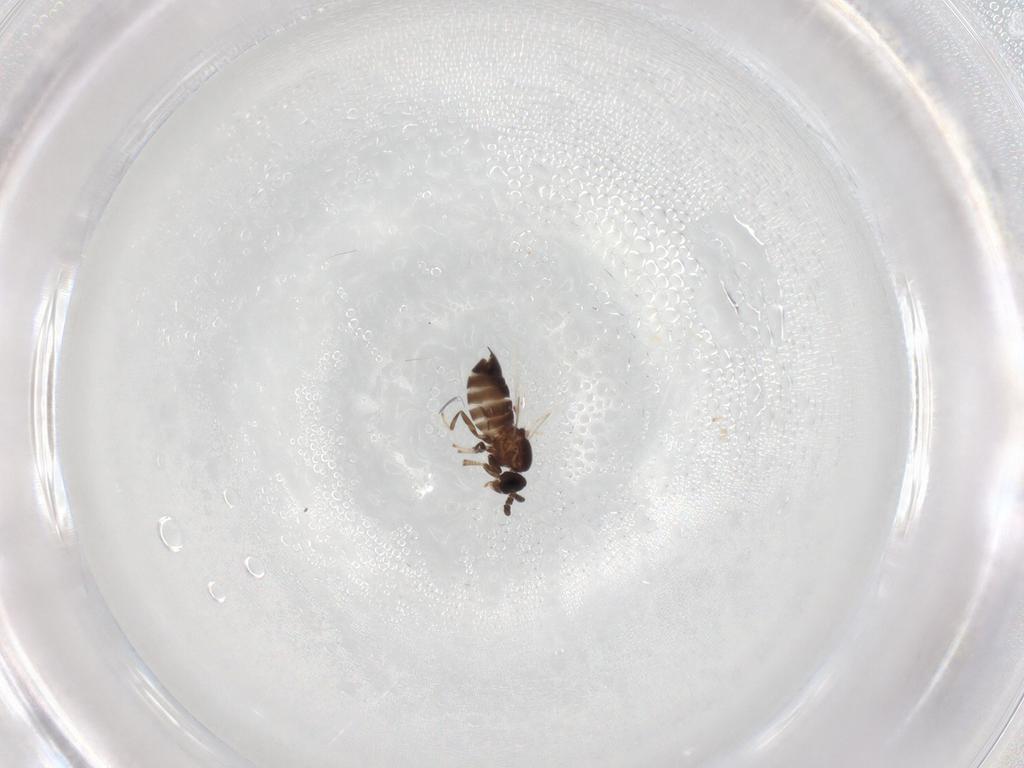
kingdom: Animalia
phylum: Arthropoda
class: Insecta
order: Diptera
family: Scatopsidae
